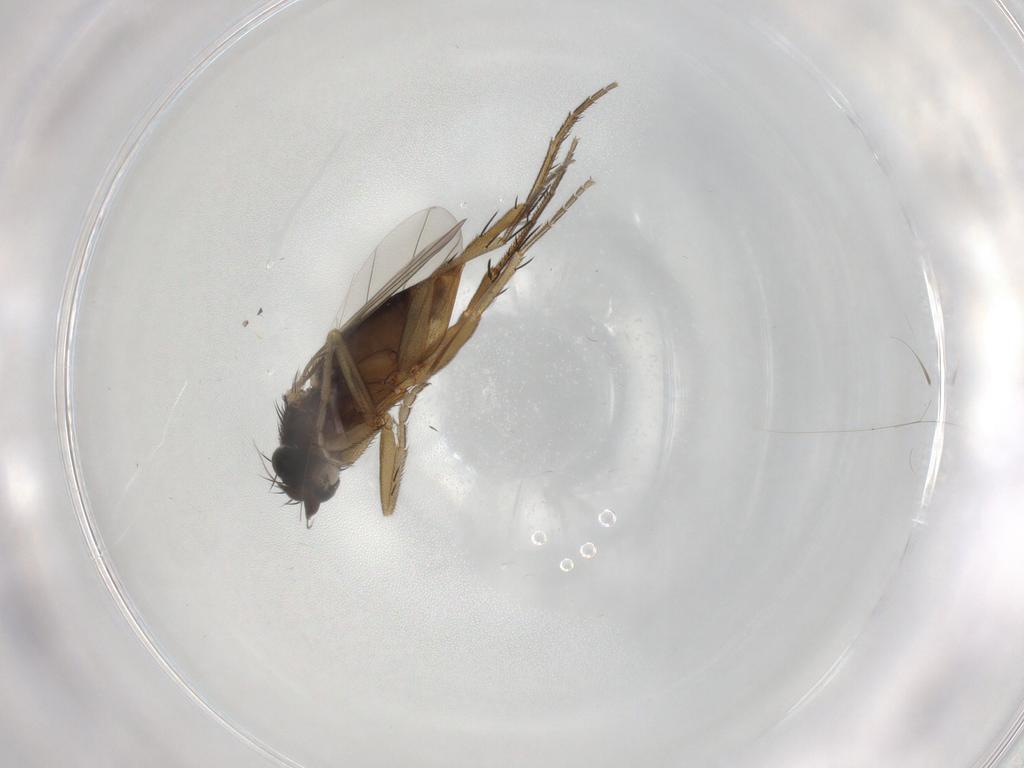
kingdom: Animalia
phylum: Arthropoda
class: Insecta
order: Diptera
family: Phoridae
